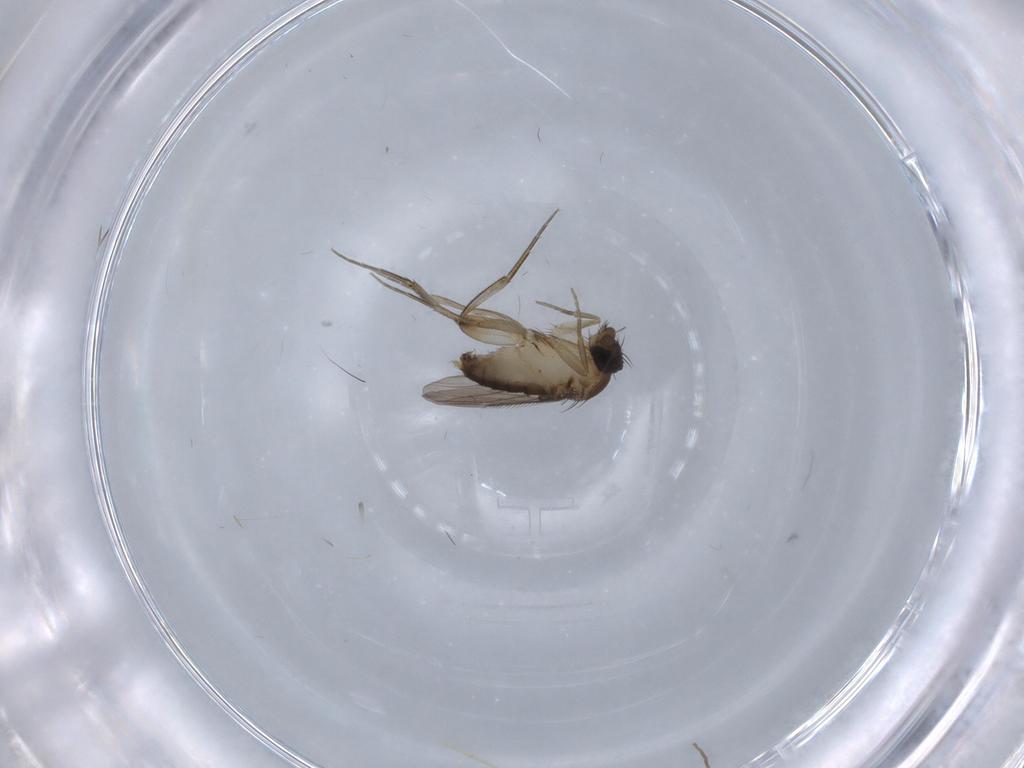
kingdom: Animalia
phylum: Arthropoda
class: Insecta
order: Diptera
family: Phoridae
